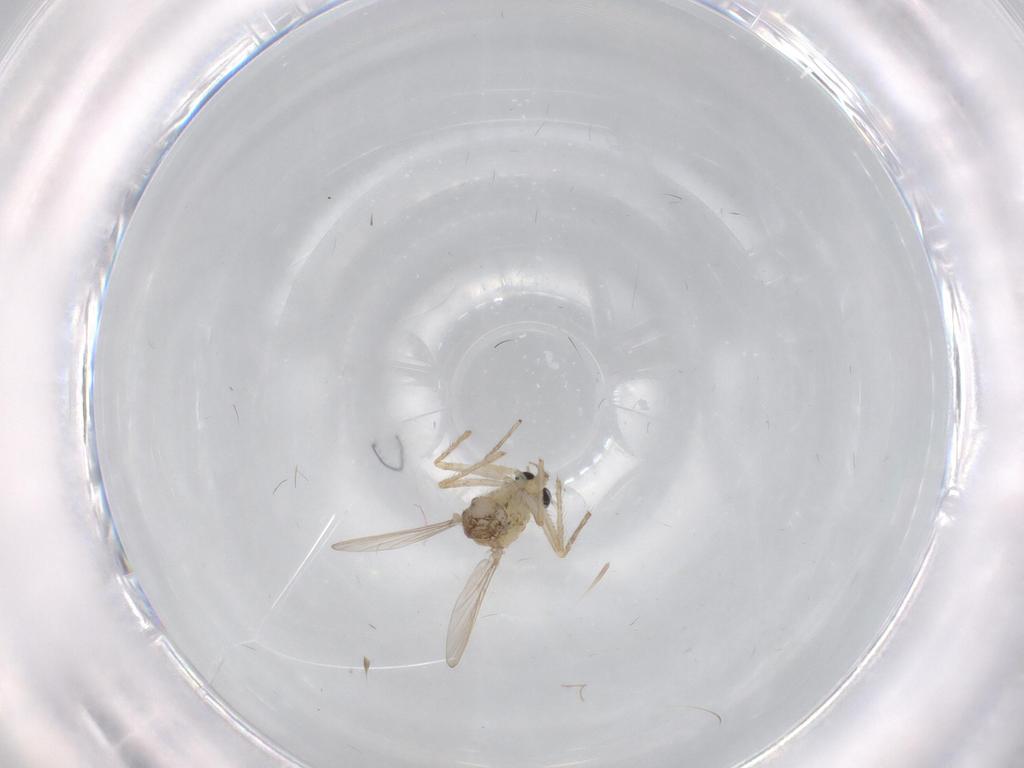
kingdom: Animalia
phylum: Arthropoda
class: Insecta
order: Diptera
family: Chironomidae
